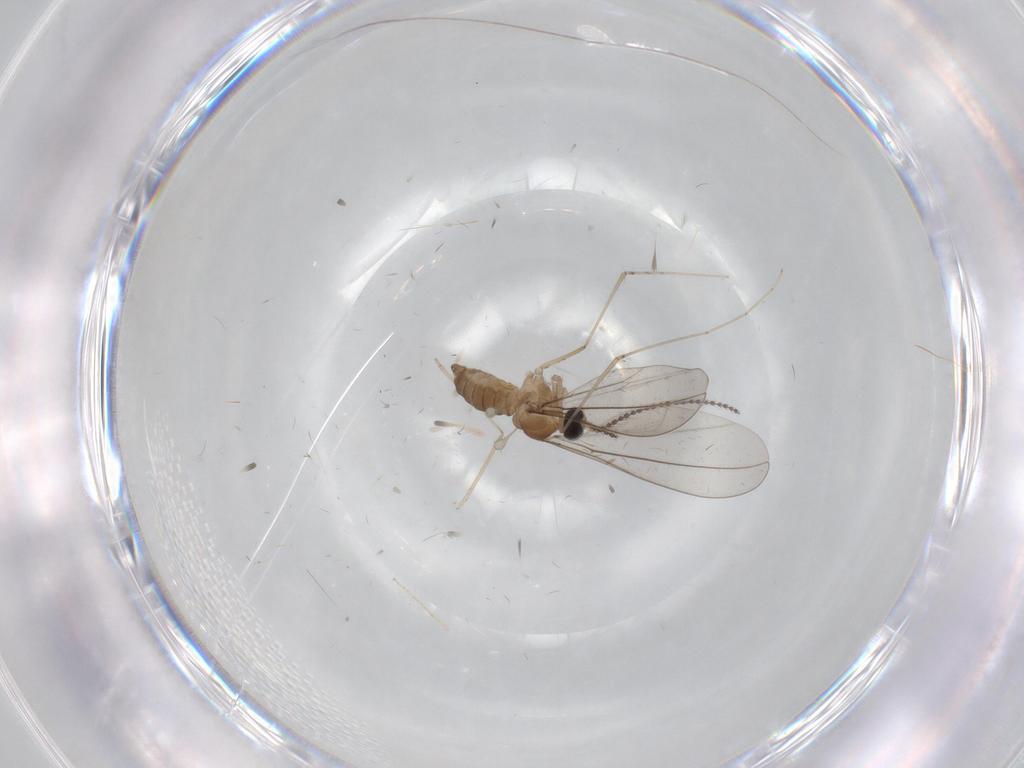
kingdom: Animalia
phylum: Arthropoda
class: Insecta
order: Diptera
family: Cecidomyiidae
